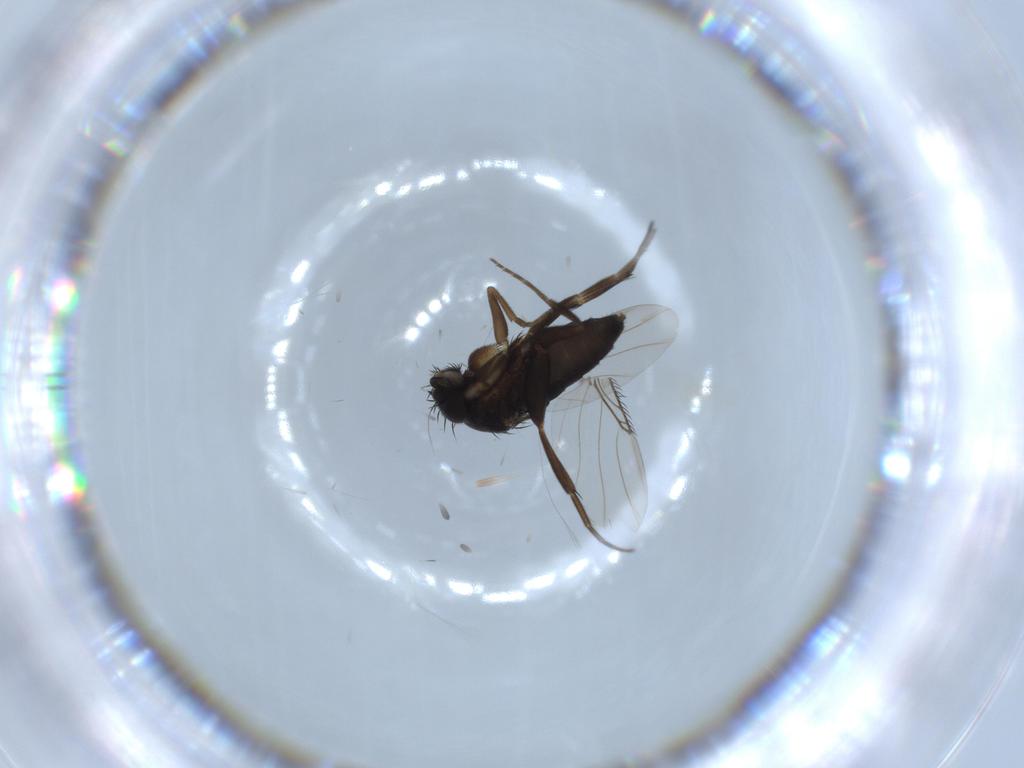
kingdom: Animalia
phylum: Arthropoda
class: Insecta
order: Diptera
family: Phoridae
